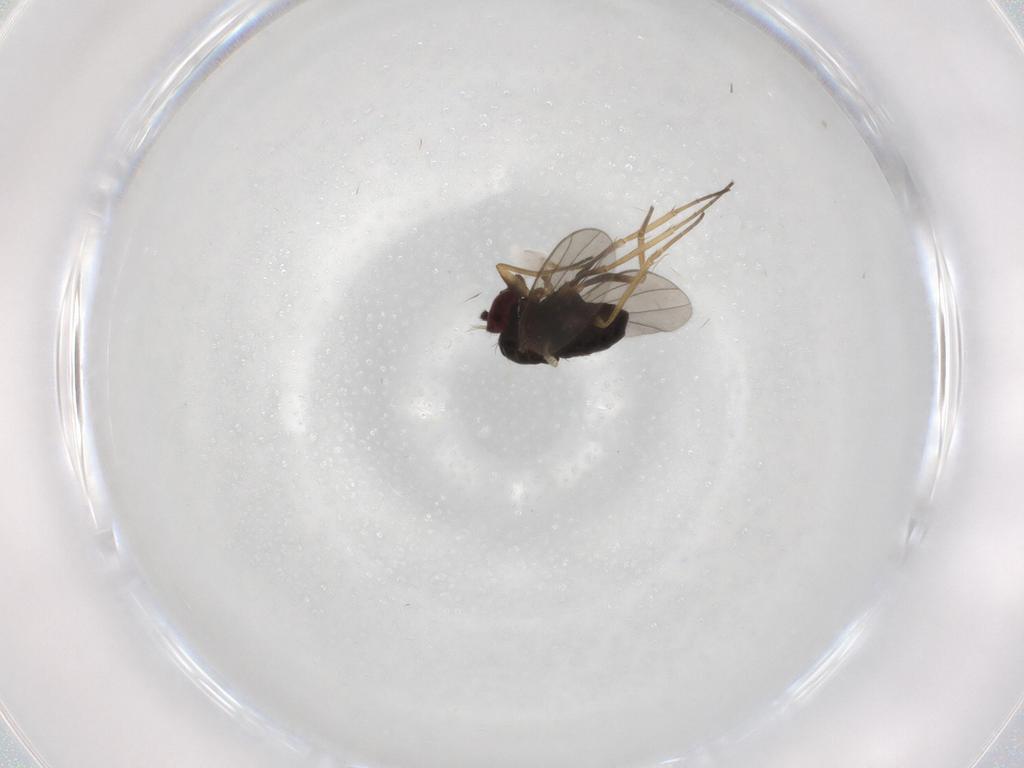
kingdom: Animalia
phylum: Arthropoda
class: Insecta
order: Diptera
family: Dolichopodidae
